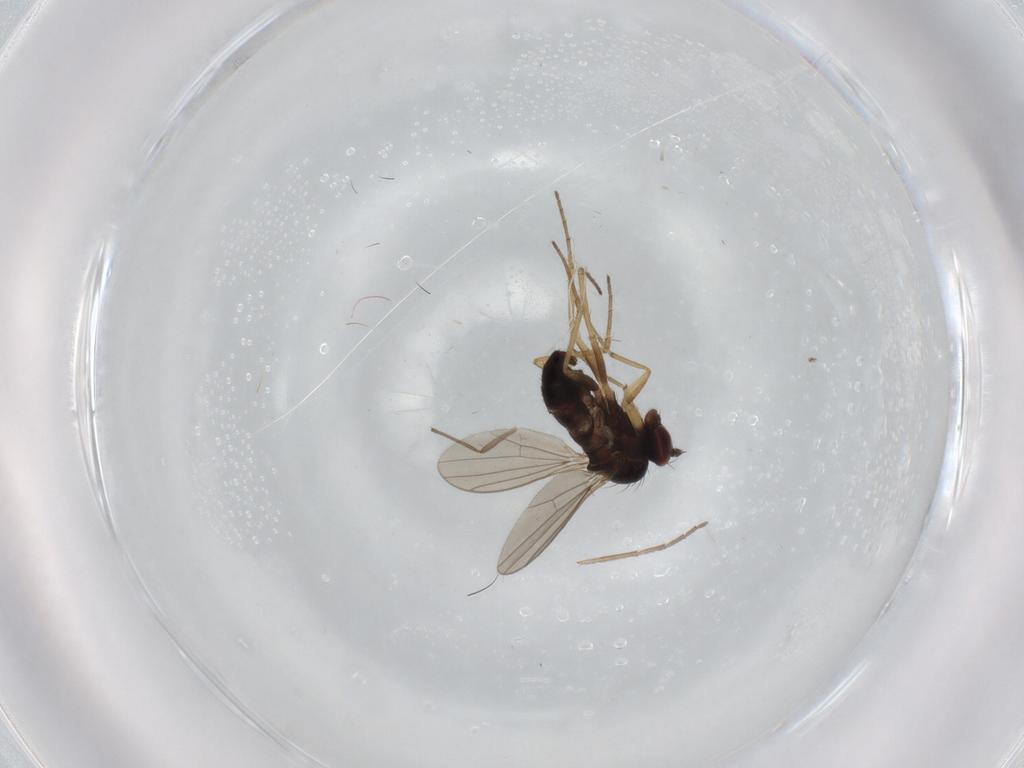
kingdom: Animalia
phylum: Arthropoda
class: Insecta
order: Diptera
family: Dolichopodidae
